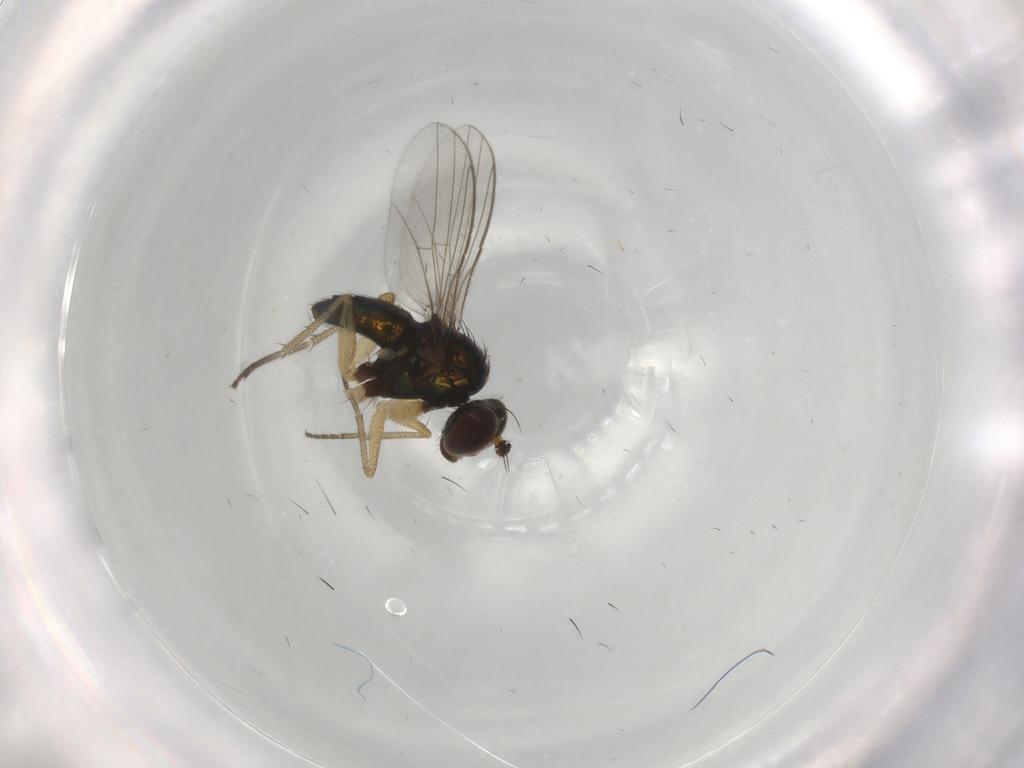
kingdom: Animalia
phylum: Arthropoda
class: Insecta
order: Diptera
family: Dolichopodidae
